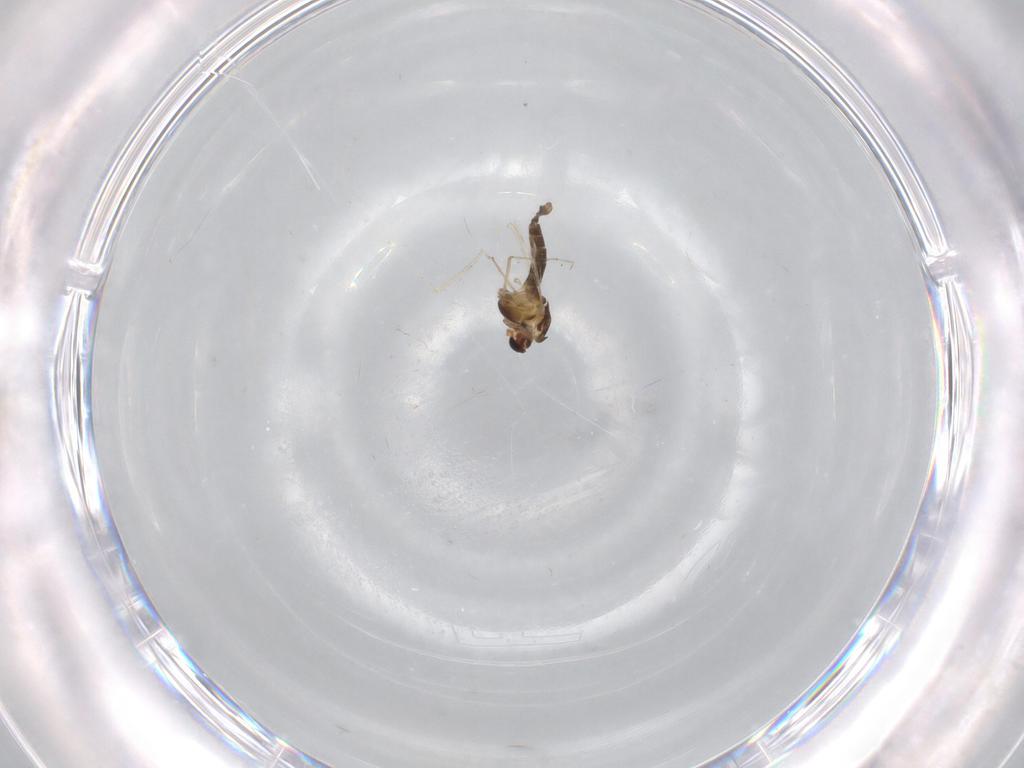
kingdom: Animalia
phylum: Arthropoda
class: Insecta
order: Diptera
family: Chironomidae
